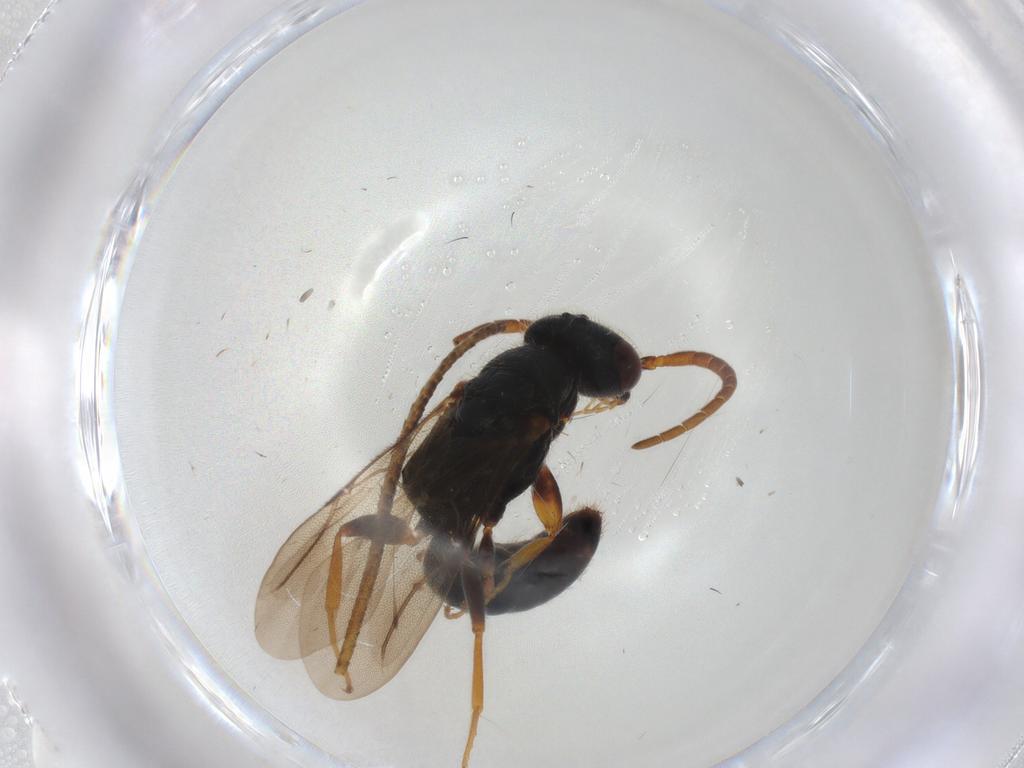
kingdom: Animalia
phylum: Arthropoda
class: Insecta
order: Hymenoptera
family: Bethylidae
